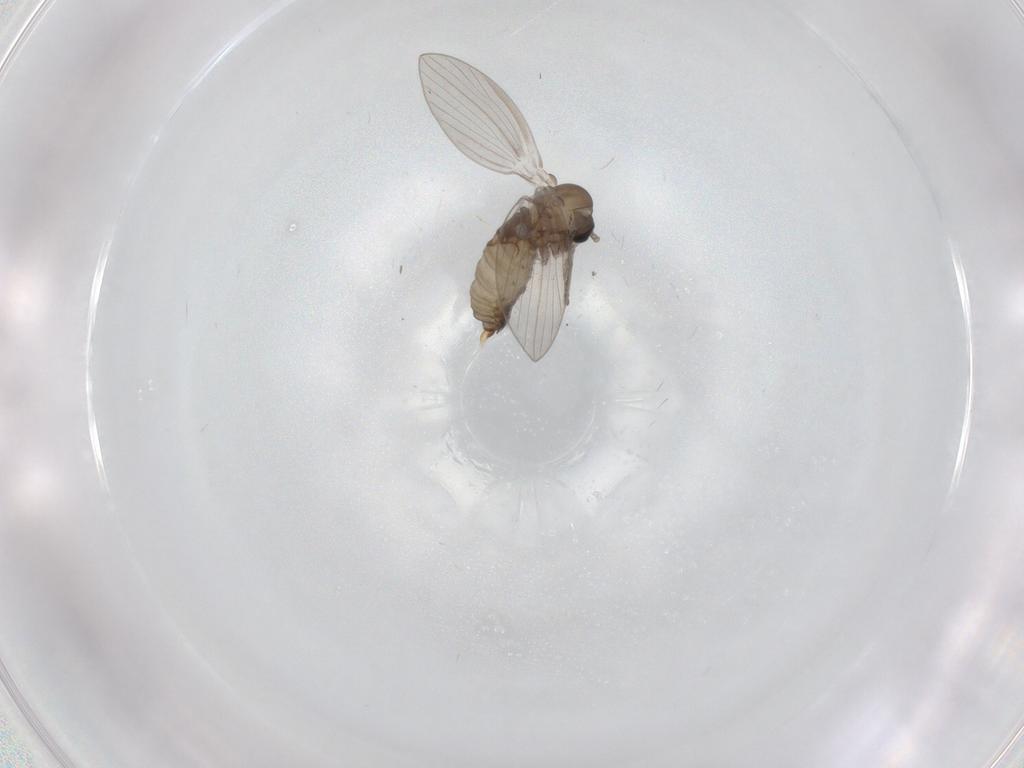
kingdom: Animalia
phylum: Arthropoda
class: Insecta
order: Diptera
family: Psychodidae
